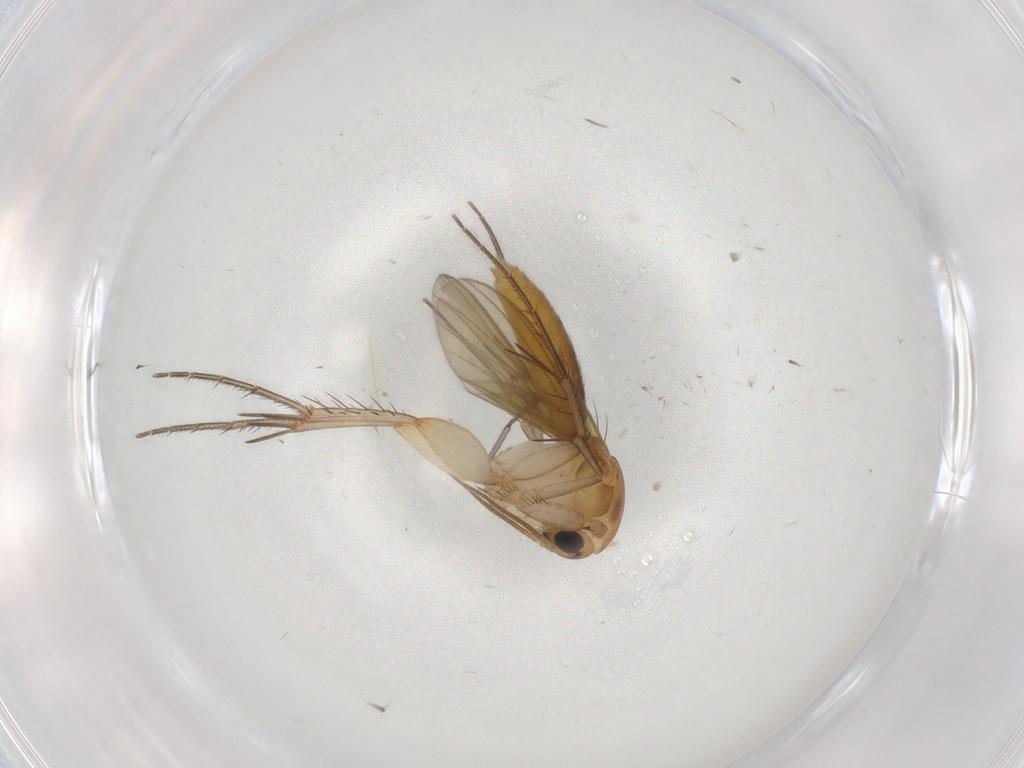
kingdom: Animalia
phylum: Arthropoda
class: Insecta
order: Diptera
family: Mycetophilidae
